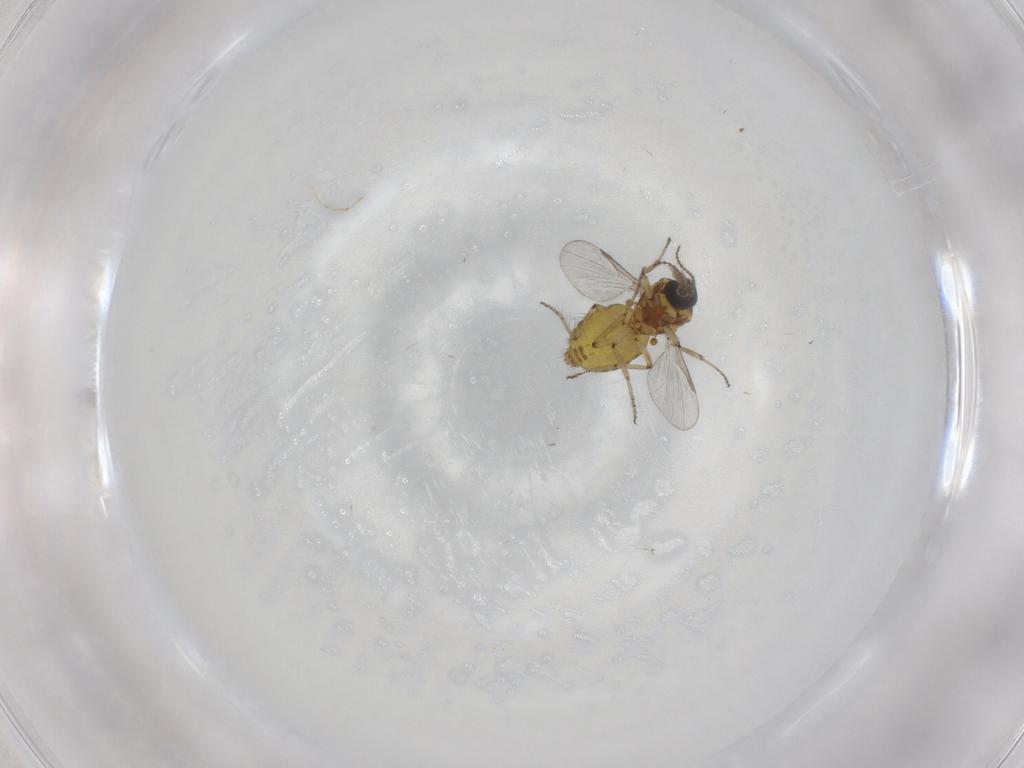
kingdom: Animalia
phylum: Arthropoda
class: Insecta
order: Diptera
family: Ceratopogonidae
